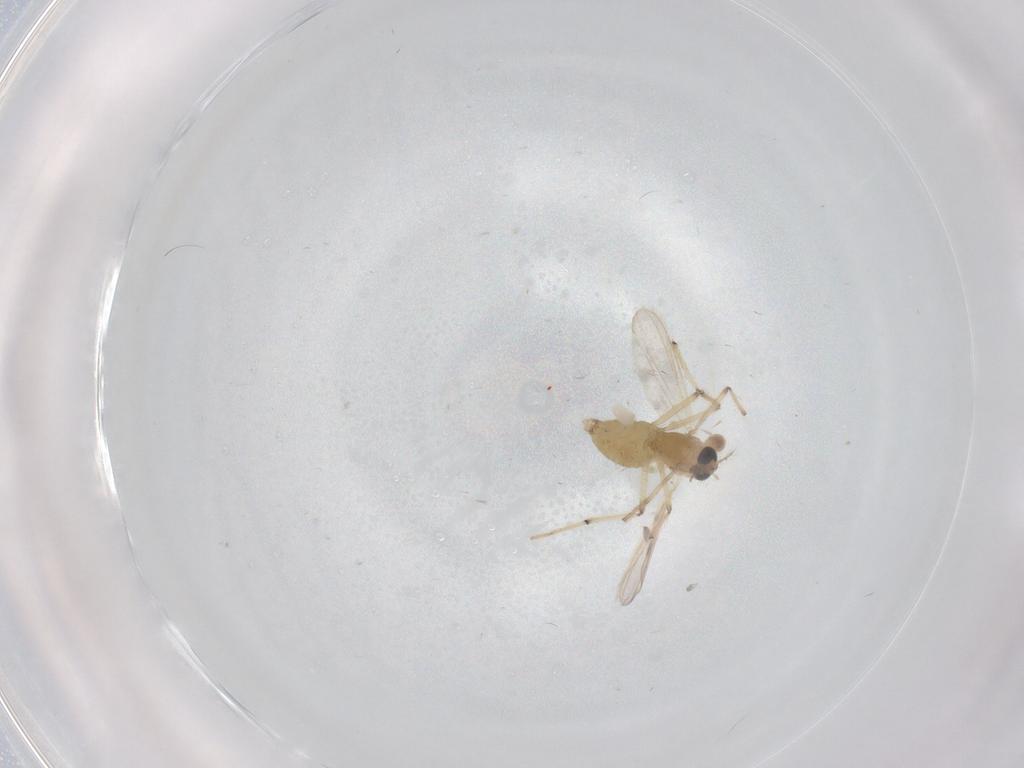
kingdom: Animalia
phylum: Arthropoda
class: Insecta
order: Diptera
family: Chironomidae
